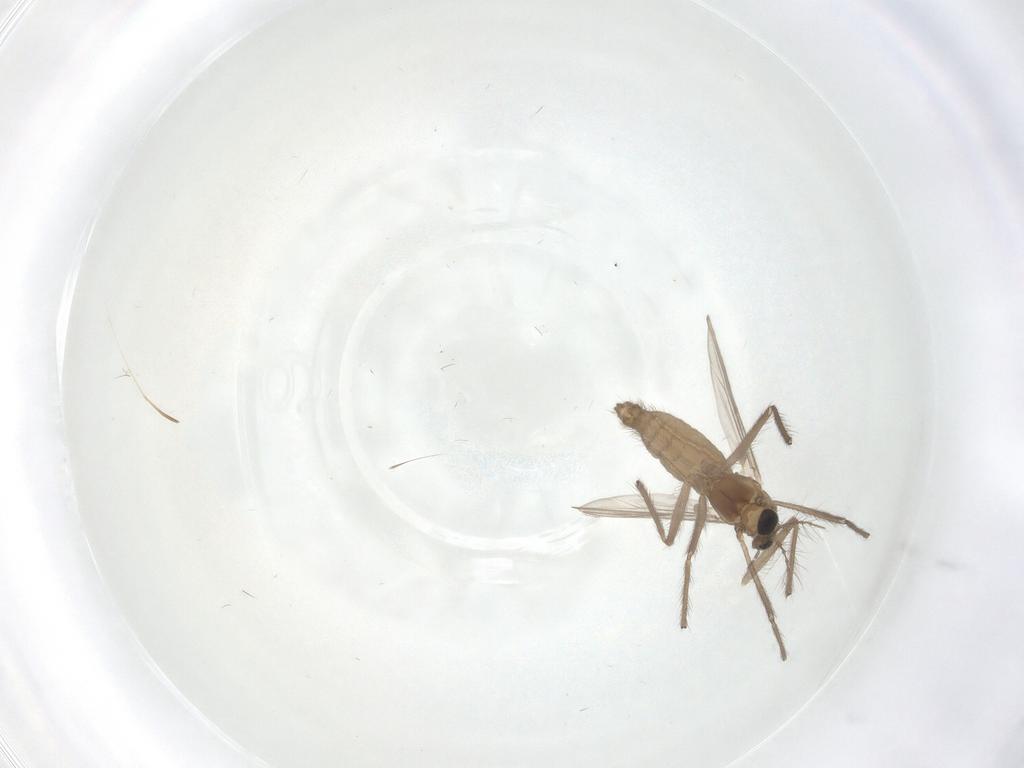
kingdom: Animalia
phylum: Arthropoda
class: Insecta
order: Diptera
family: Chironomidae
